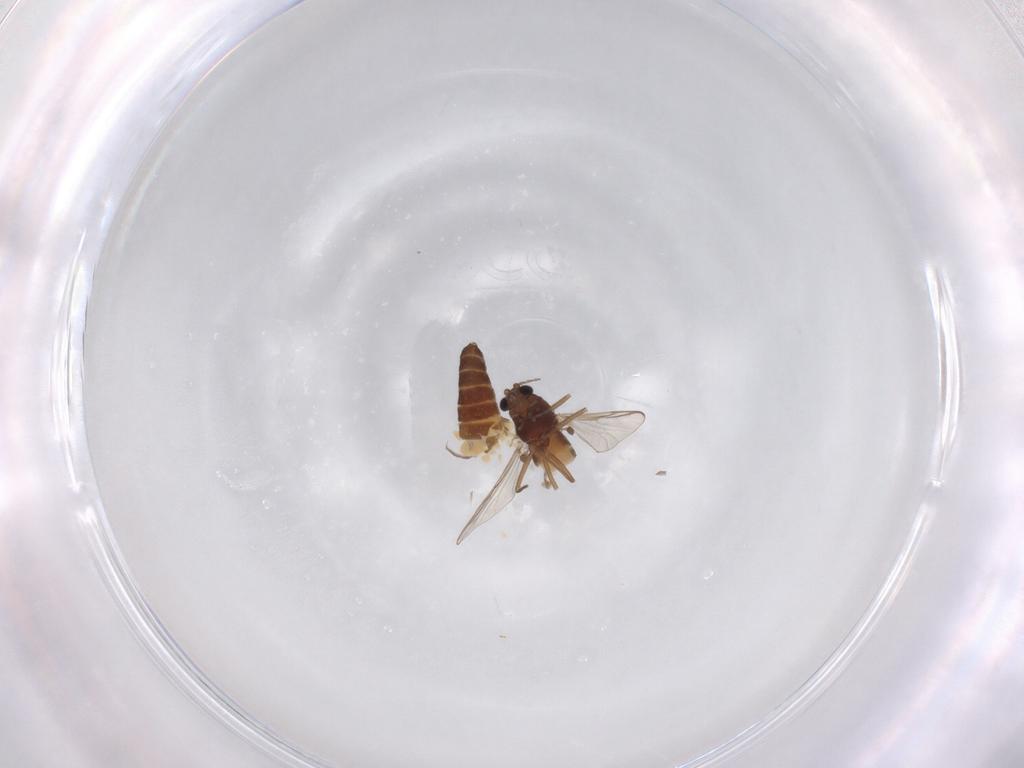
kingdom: Animalia
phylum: Arthropoda
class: Insecta
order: Diptera
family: Chironomidae
